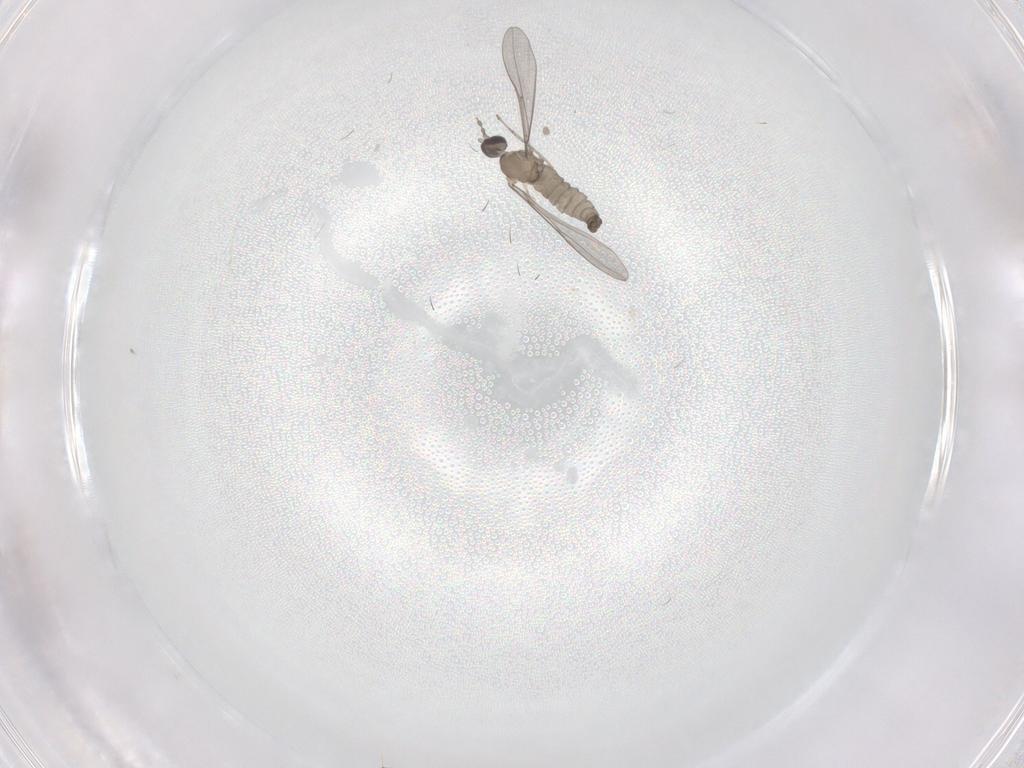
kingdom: Animalia
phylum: Arthropoda
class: Insecta
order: Diptera
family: Cecidomyiidae
